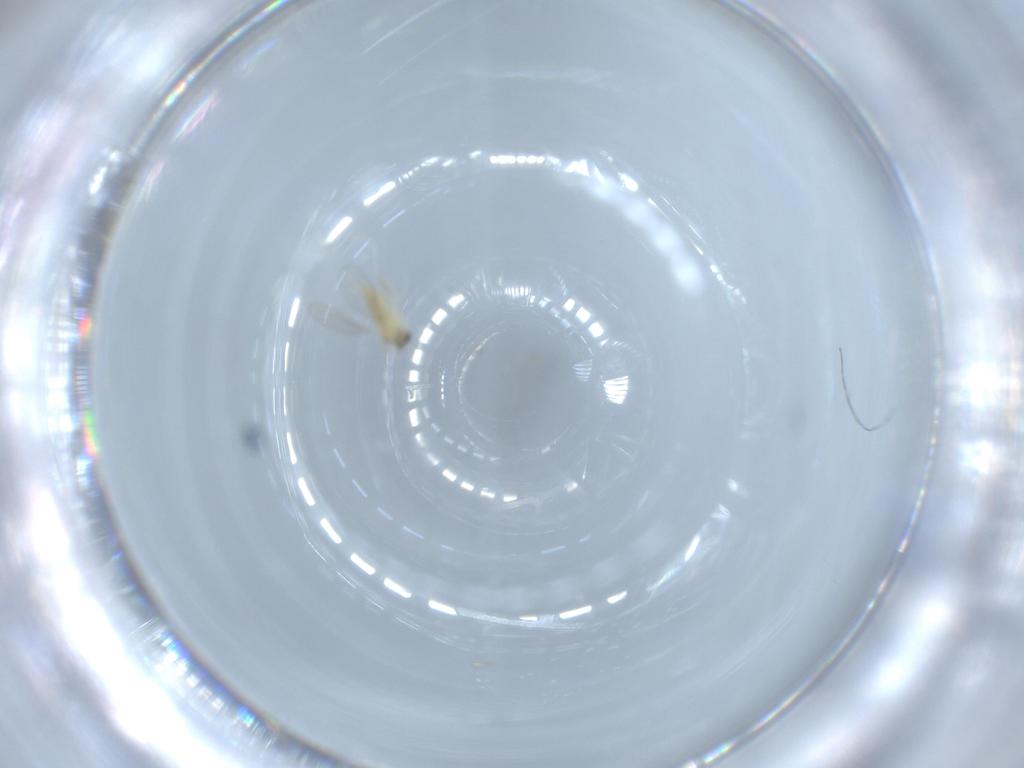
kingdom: Animalia
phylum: Arthropoda
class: Insecta
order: Diptera
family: Cecidomyiidae
